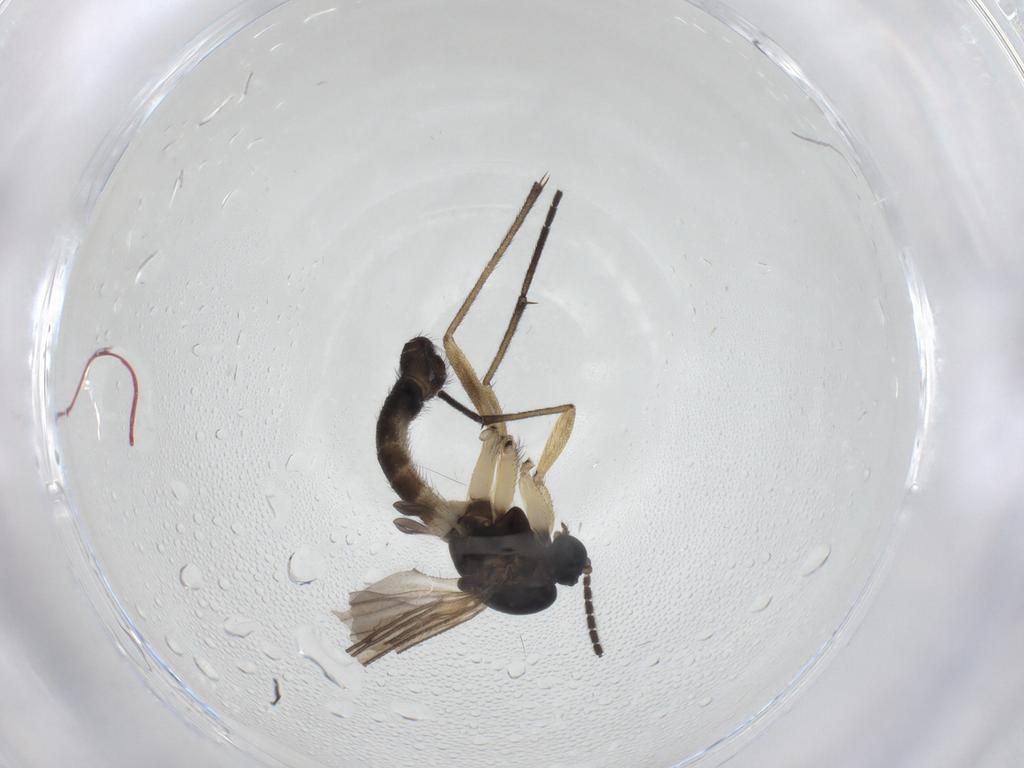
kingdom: Animalia
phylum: Arthropoda
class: Insecta
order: Diptera
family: Sciaridae
